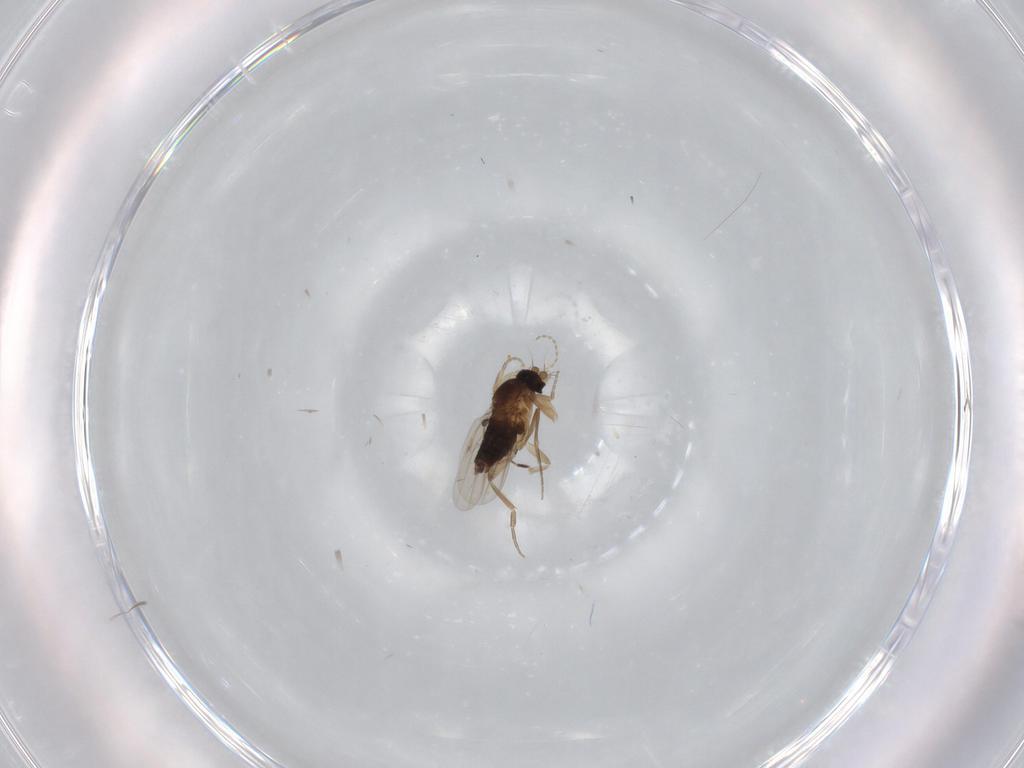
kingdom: Animalia
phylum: Arthropoda
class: Insecta
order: Diptera
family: Phoridae
